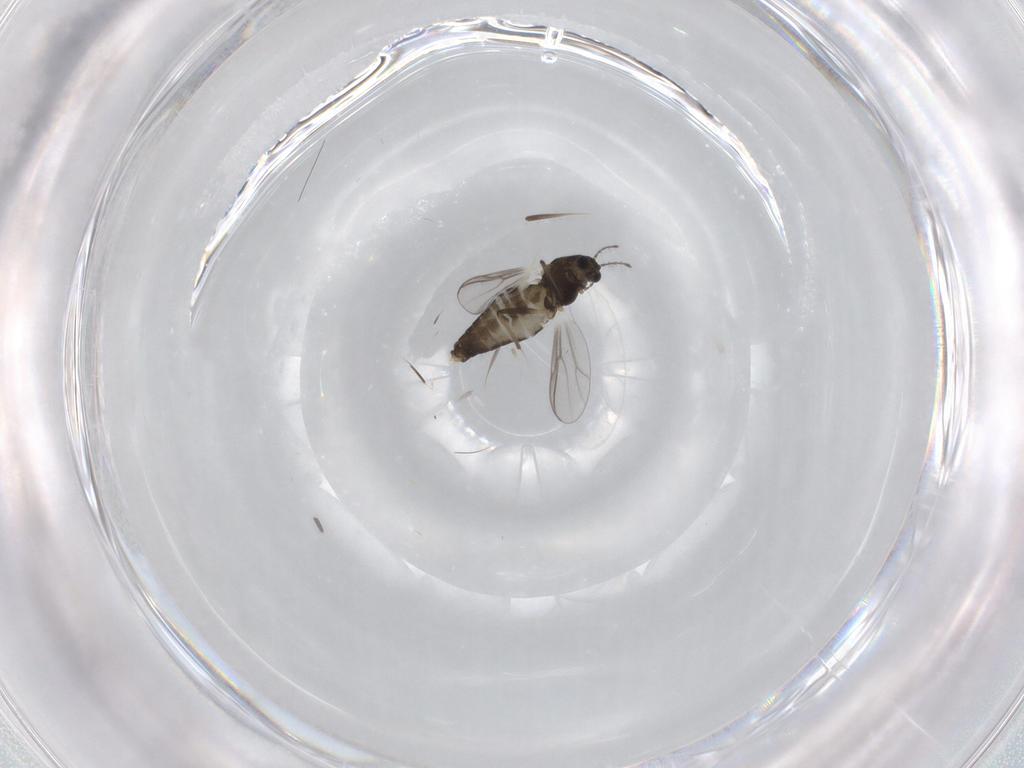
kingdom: Animalia
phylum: Arthropoda
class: Insecta
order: Diptera
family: Chironomidae
